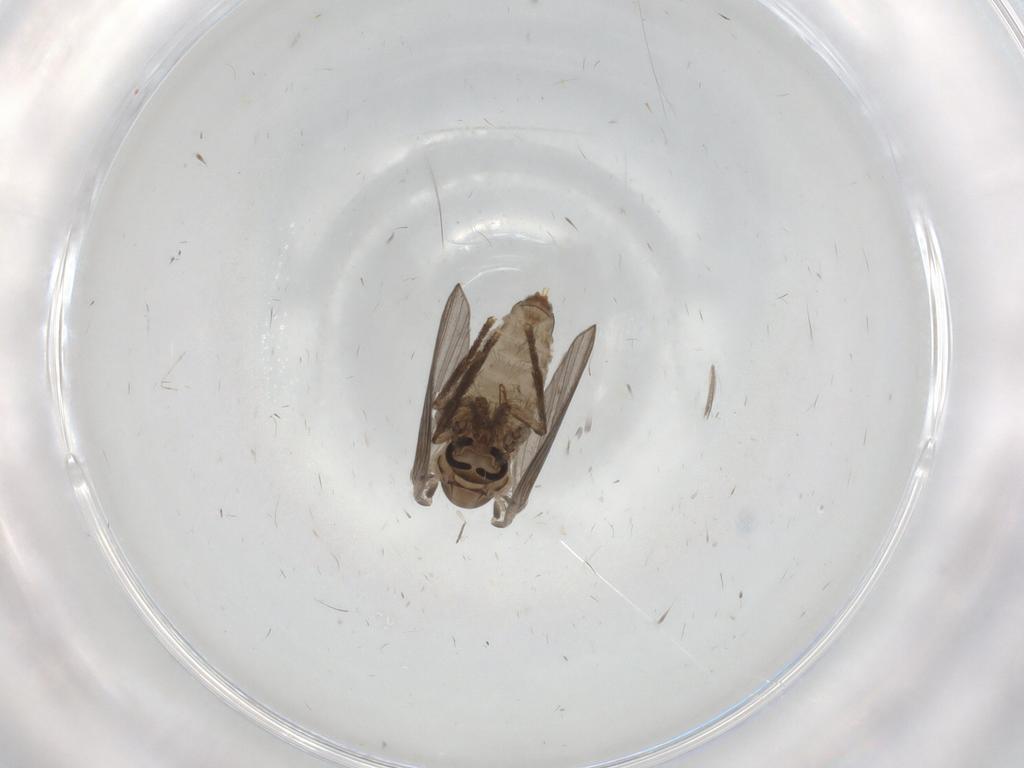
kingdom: Animalia
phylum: Arthropoda
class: Insecta
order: Diptera
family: Psychodidae
